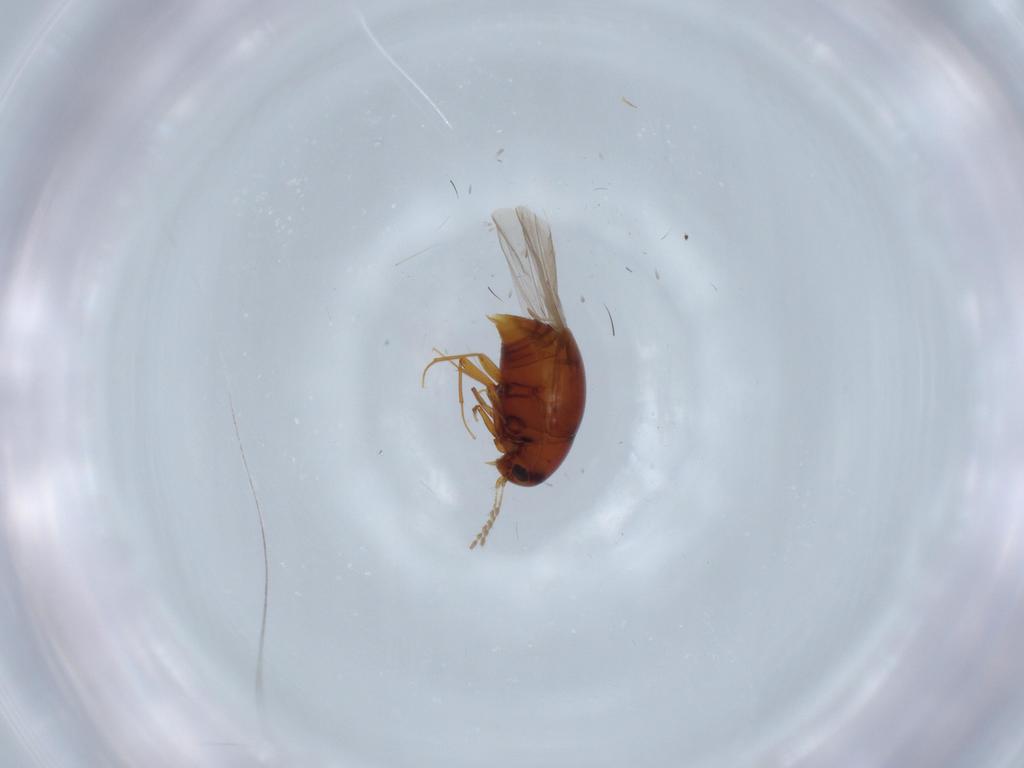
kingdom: Animalia
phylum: Arthropoda
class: Insecta
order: Coleoptera
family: Staphylinidae
